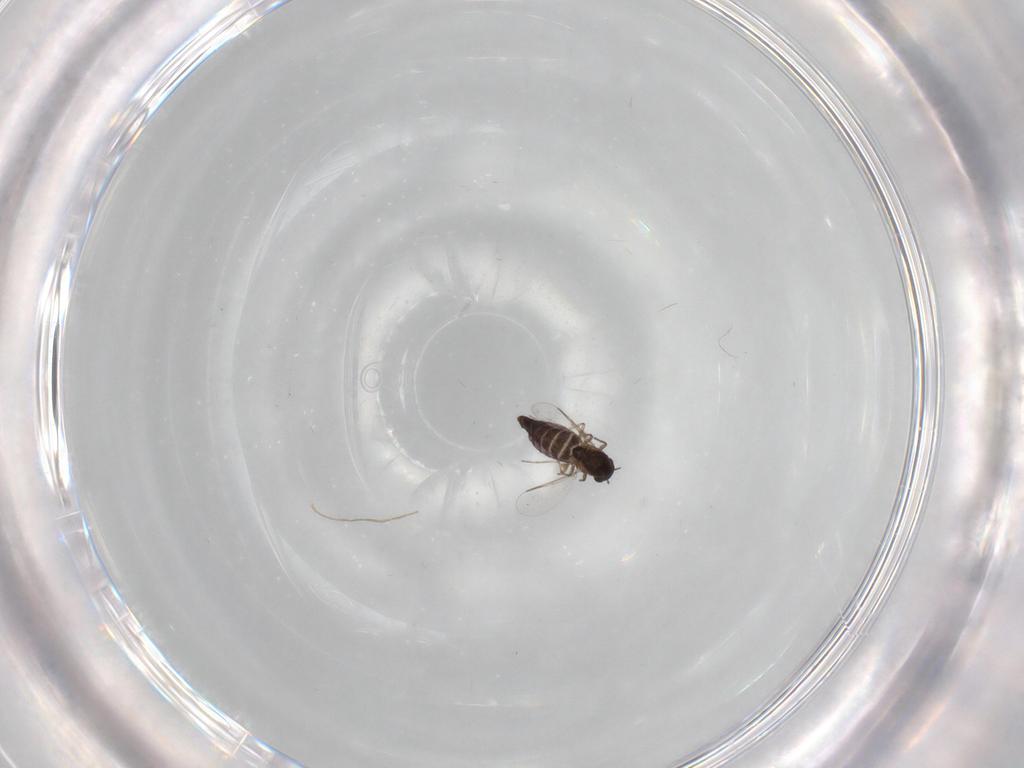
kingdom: Animalia
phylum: Arthropoda
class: Insecta
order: Diptera
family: Chironomidae
